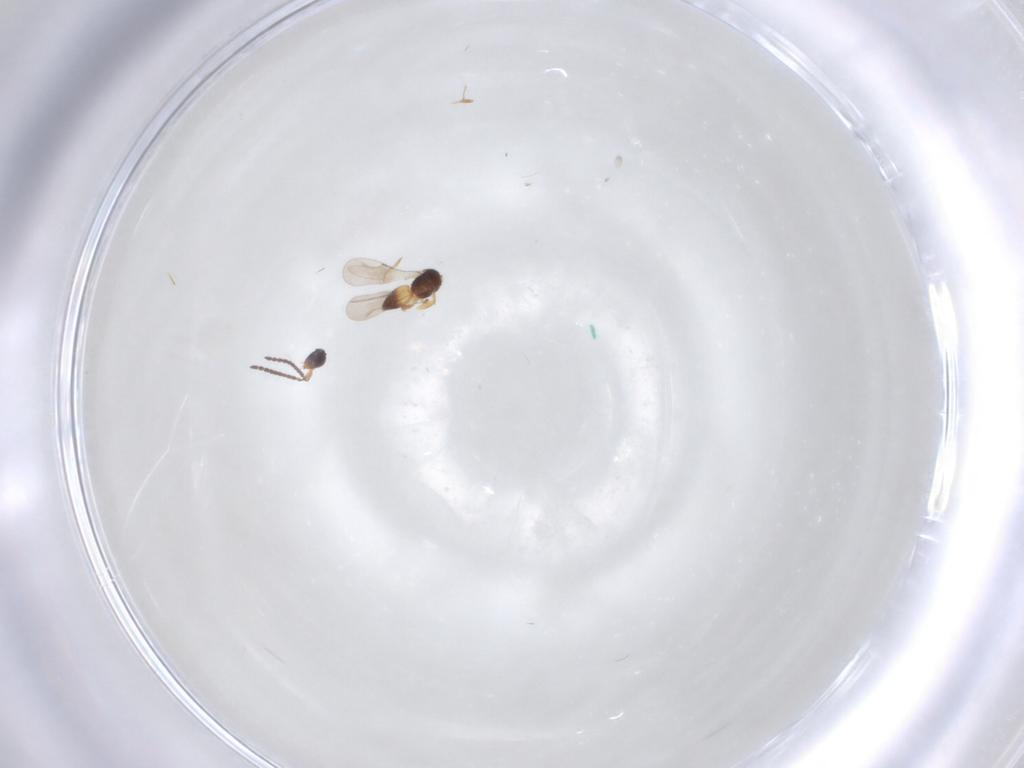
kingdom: Animalia
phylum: Arthropoda
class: Insecta
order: Hymenoptera
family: Ceraphronidae
